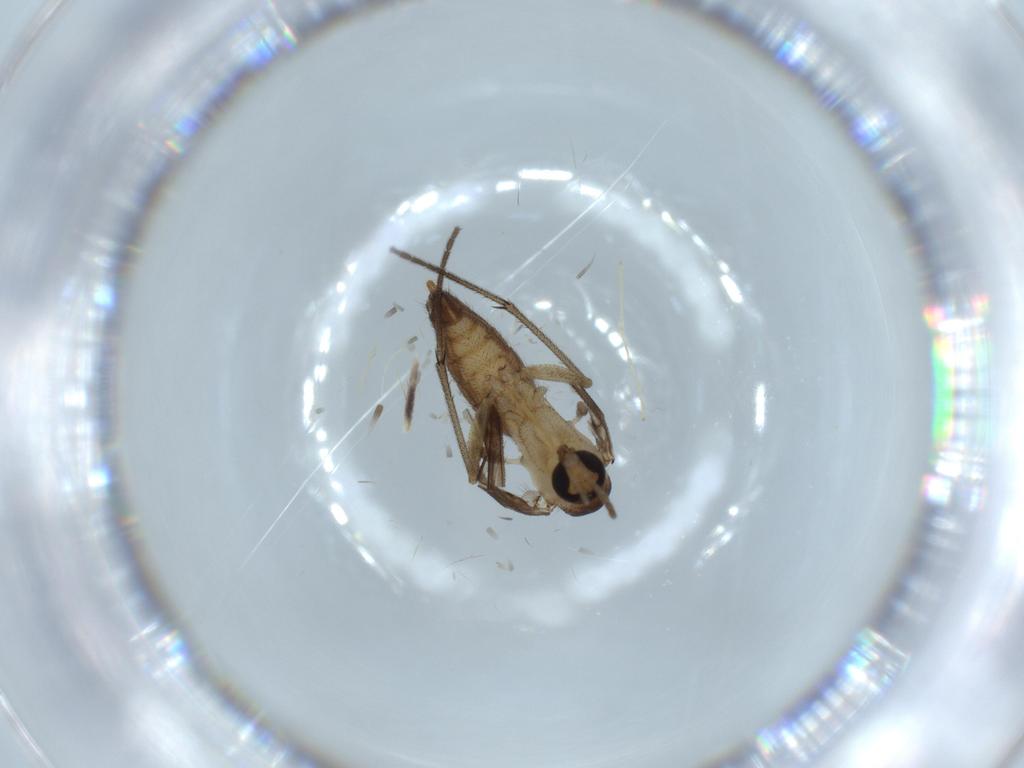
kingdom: Animalia
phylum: Arthropoda
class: Insecta
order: Diptera
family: Diadocidiidae
